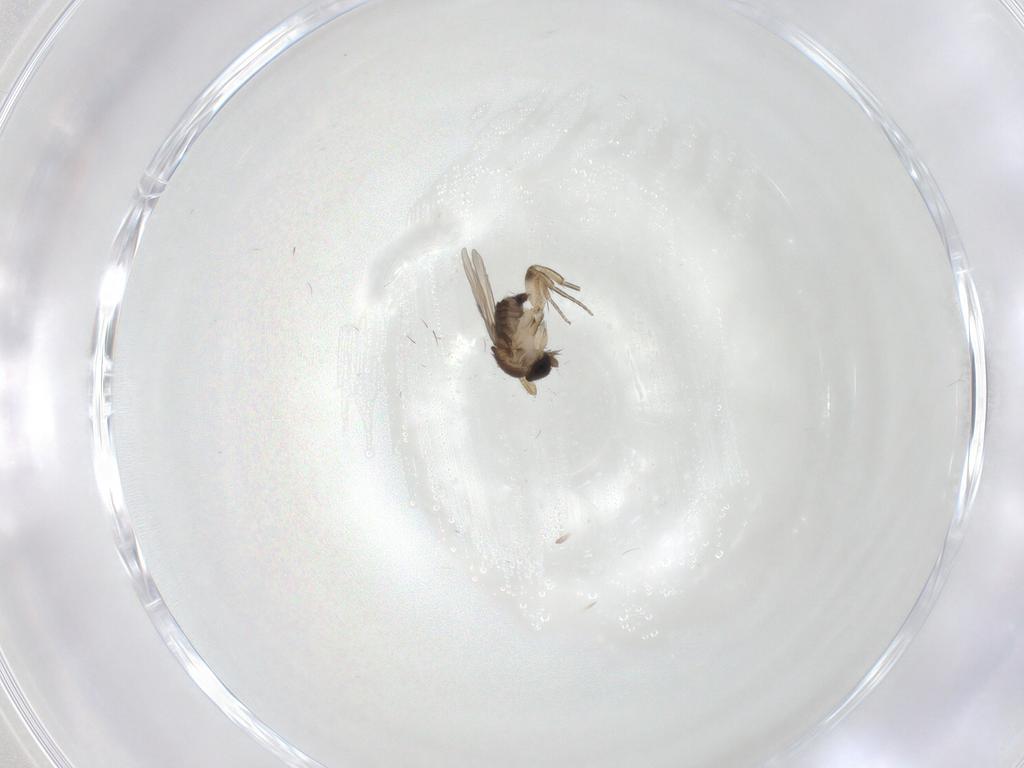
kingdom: Animalia
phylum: Arthropoda
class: Insecta
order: Diptera
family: Phoridae
